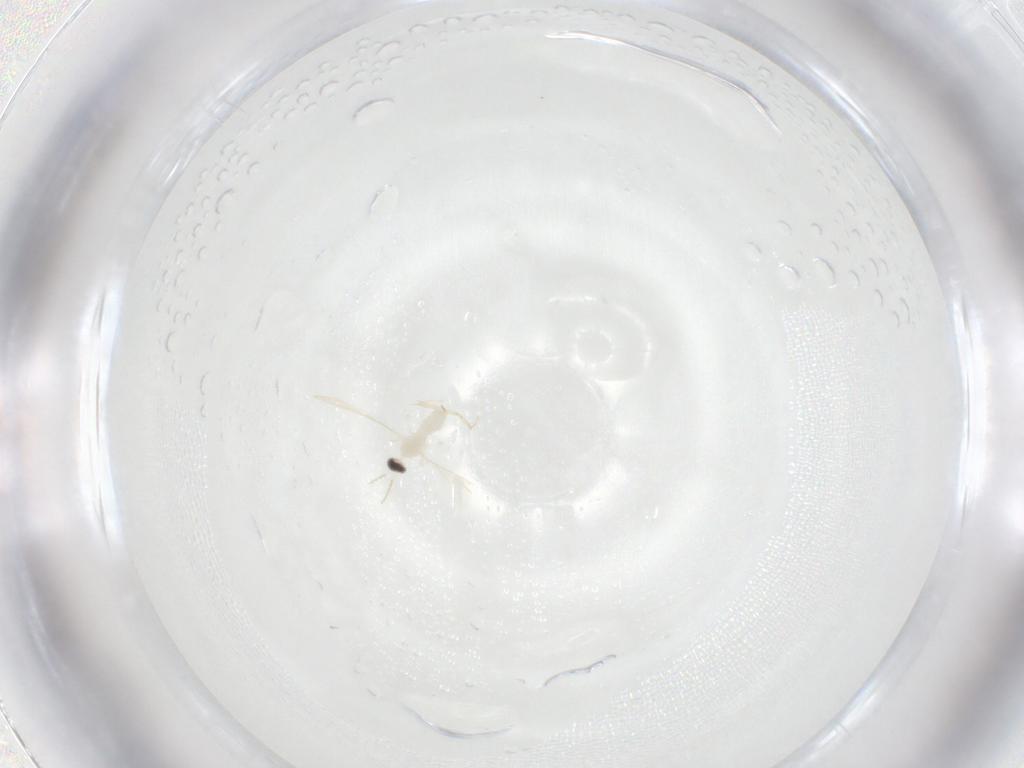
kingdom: Animalia
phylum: Arthropoda
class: Insecta
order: Diptera
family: Cecidomyiidae
